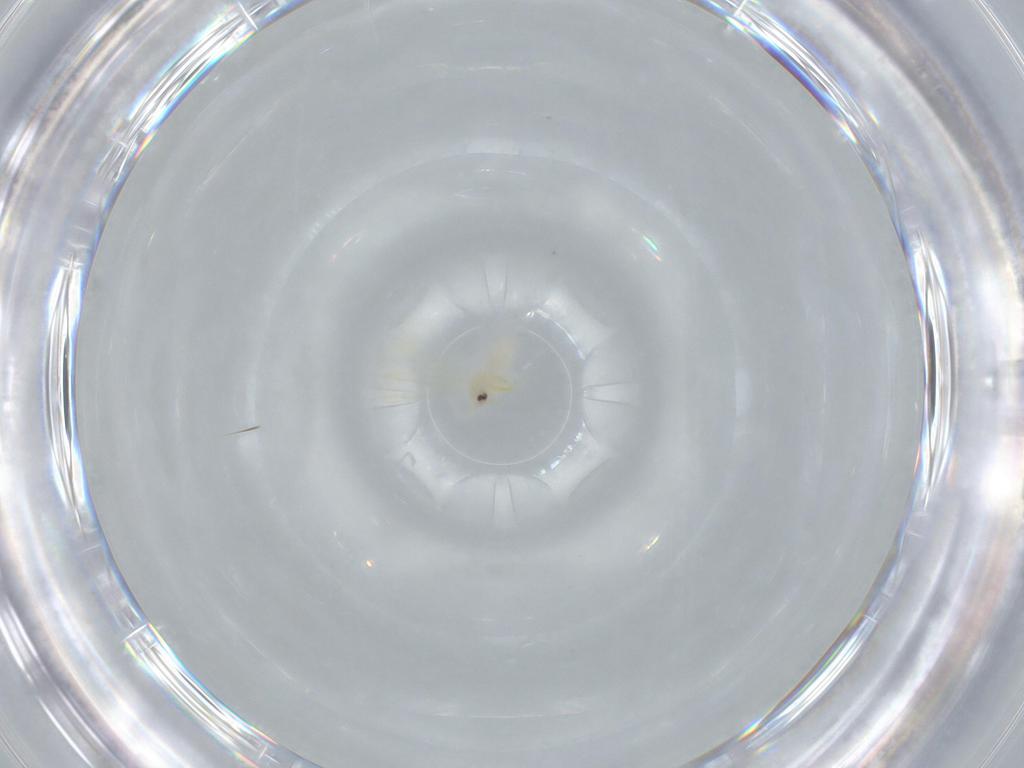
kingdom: Animalia
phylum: Arthropoda
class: Insecta
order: Hemiptera
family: Aleyrodidae
